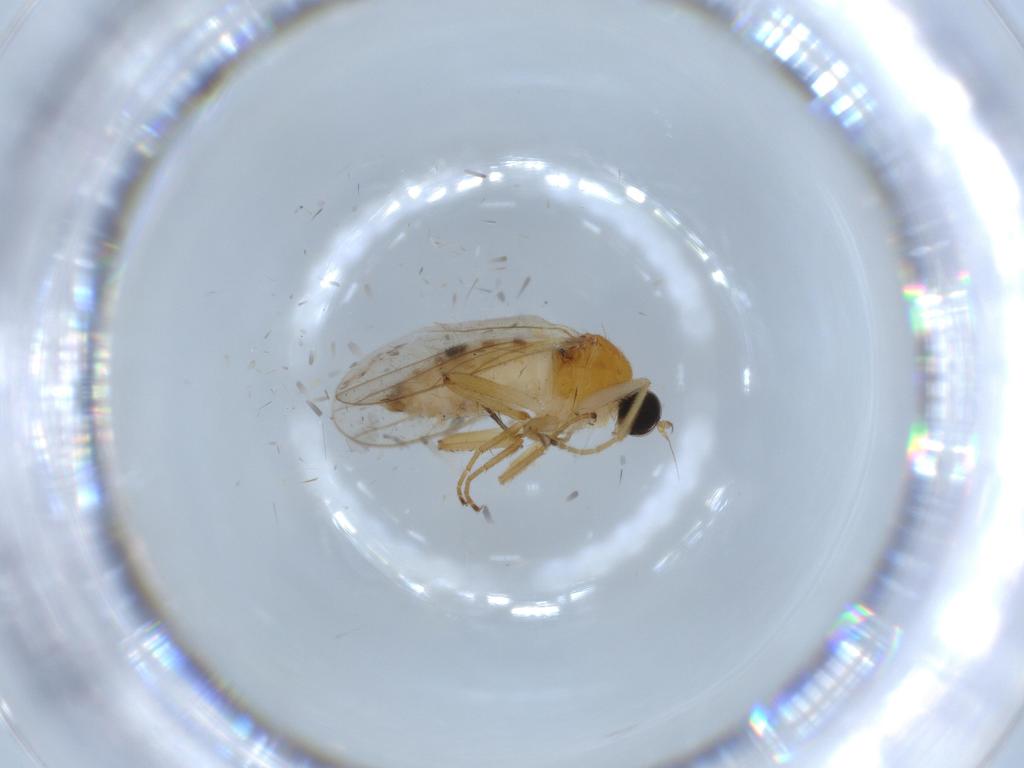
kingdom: Animalia
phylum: Arthropoda
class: Insecta
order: Diptera
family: Hybotidae
